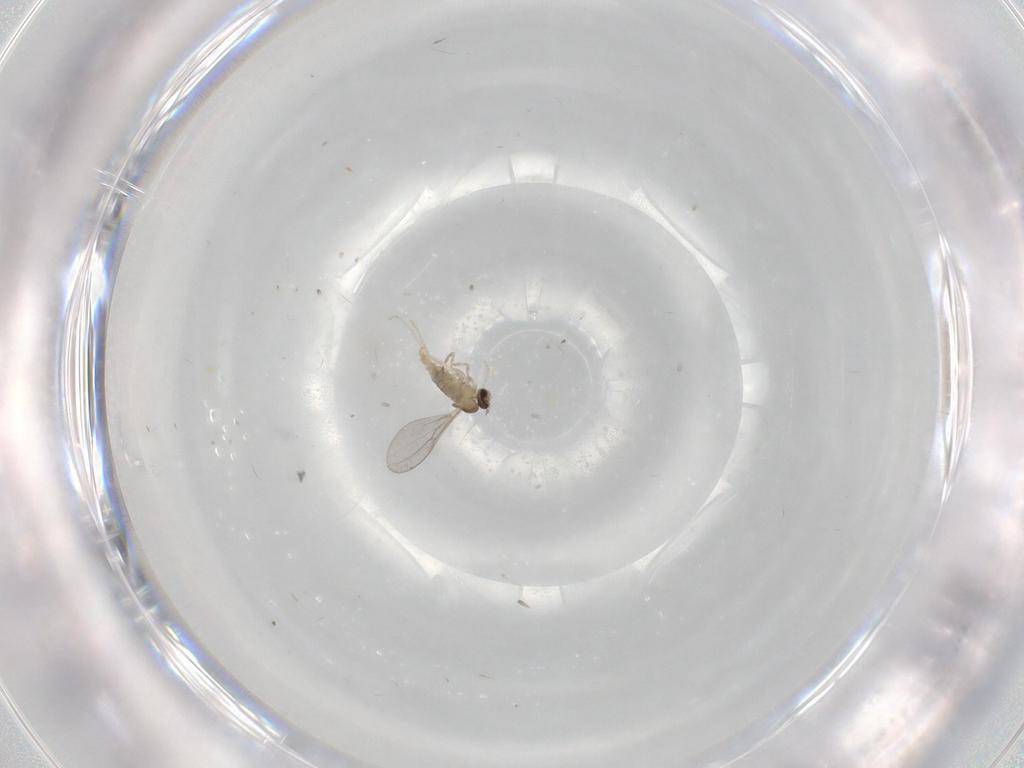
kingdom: Animalia
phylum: Arthropoda
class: Insecta
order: Diptera
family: Cecidomyiidae
